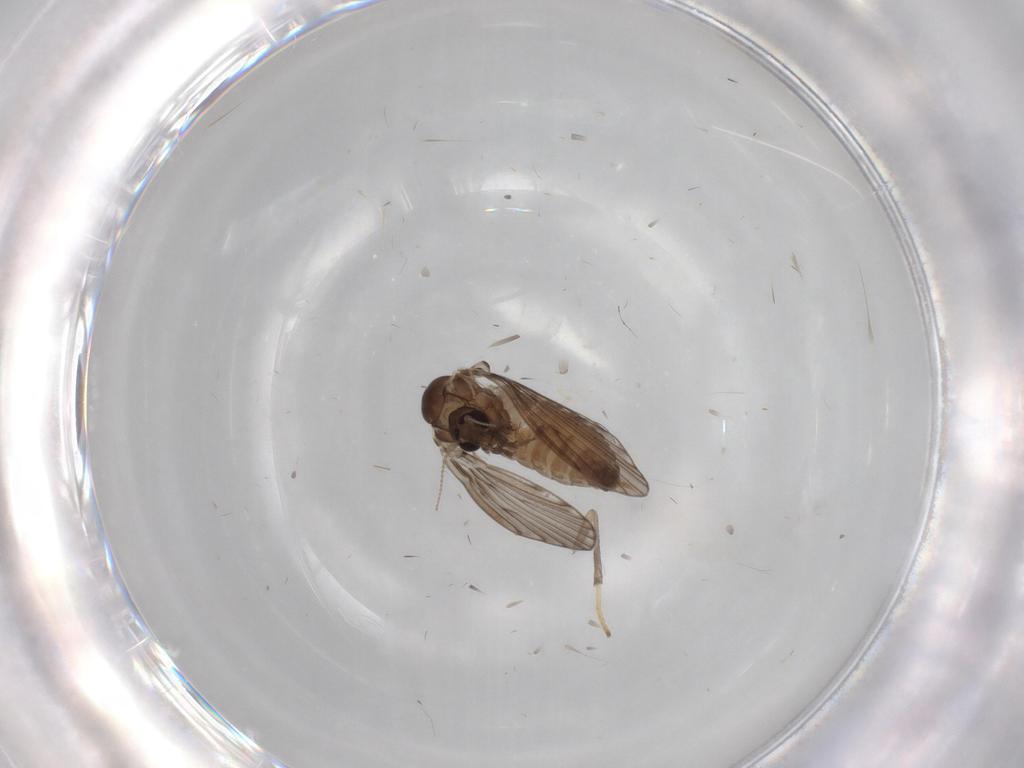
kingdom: Animalia
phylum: Arthropoda
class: Insecta
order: Diptera
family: Psychodidae
